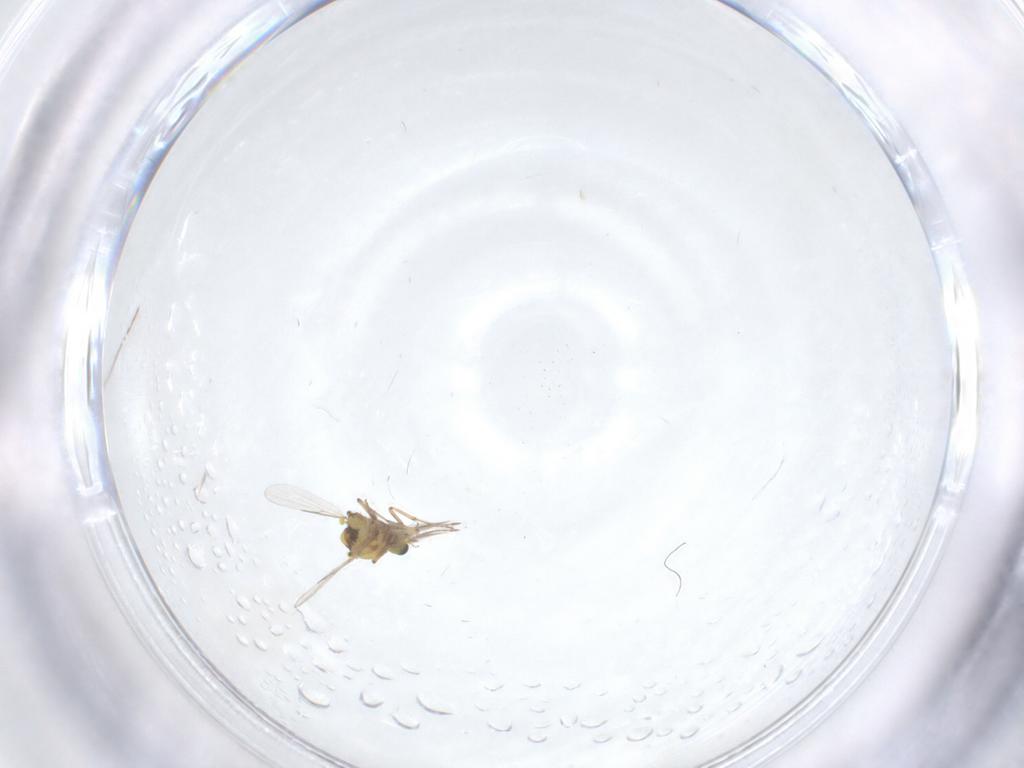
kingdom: Animalia
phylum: Arthropoda
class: Insecta
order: Diptera
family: Ceratopogonidae
